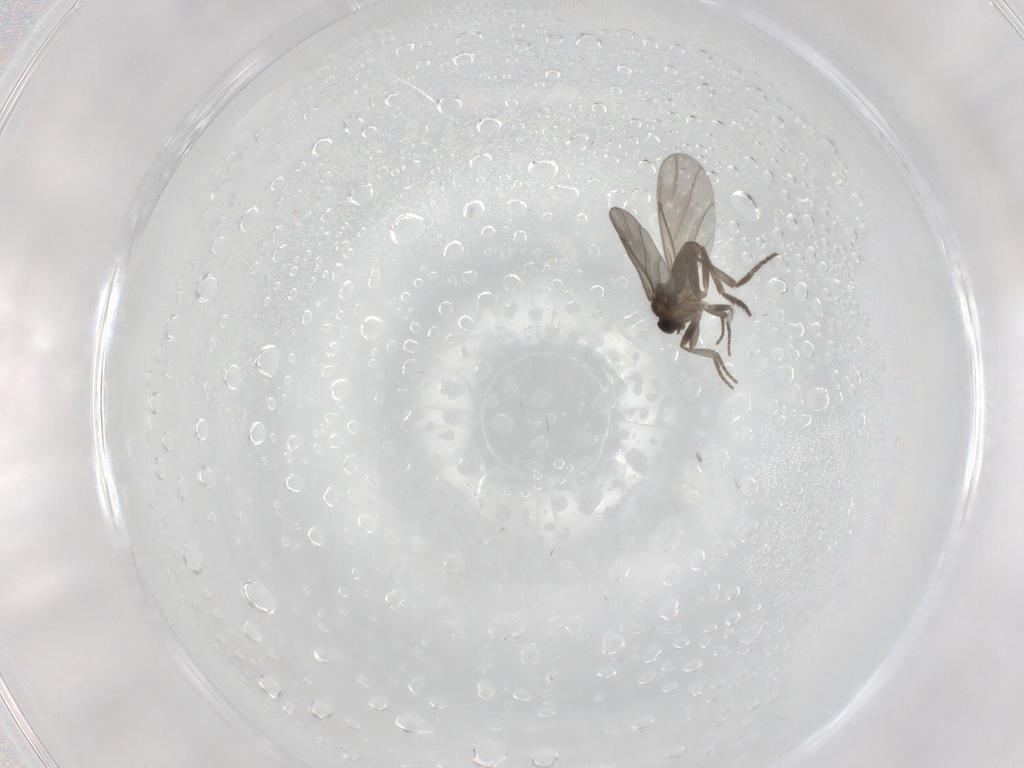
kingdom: Animalia
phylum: Arthropoda
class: Insecta
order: Diptera
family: Phoridae
